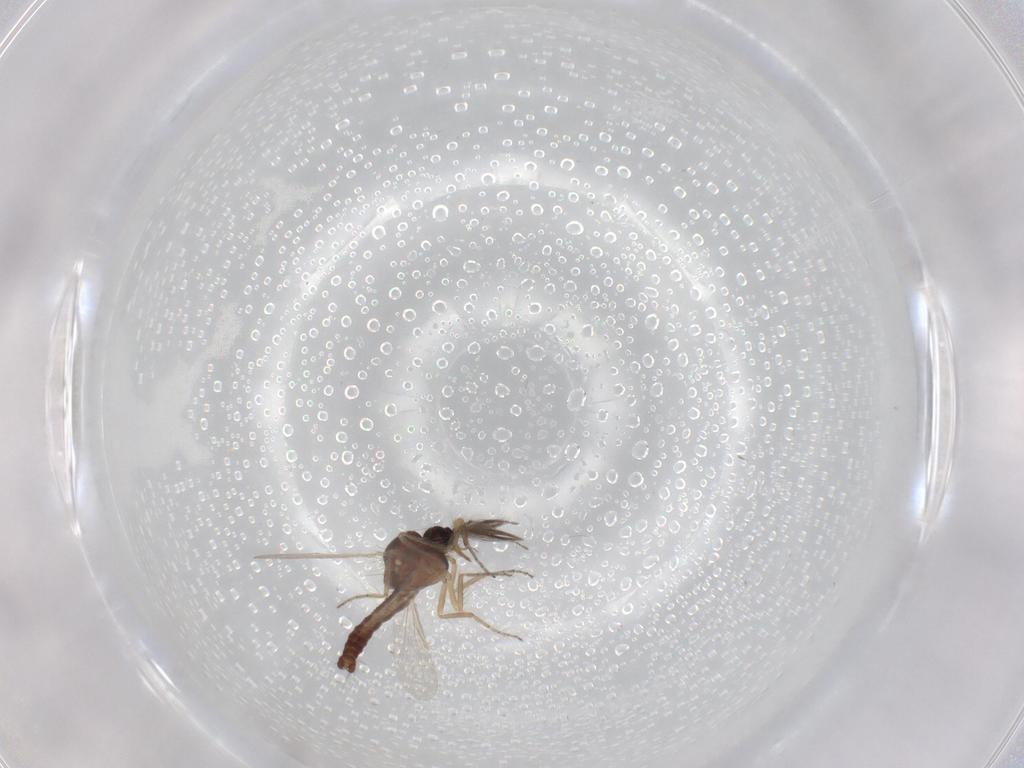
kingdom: Animalia
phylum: Arthropoda
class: Insecta
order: Diptera
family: Ceratopogonidae
